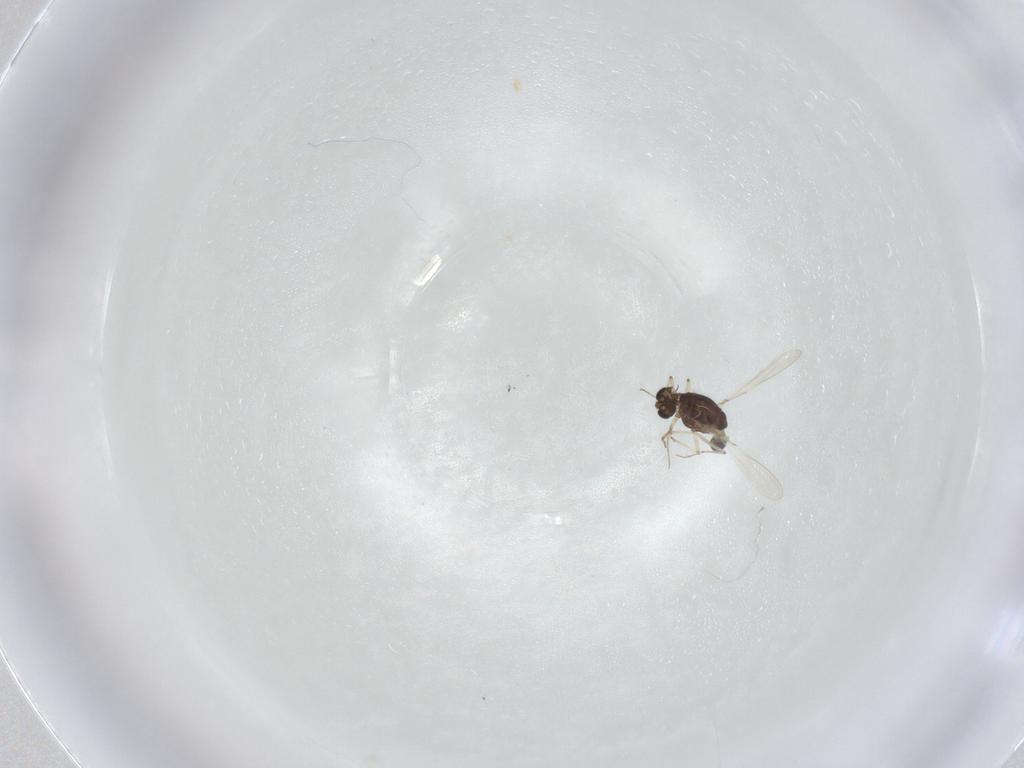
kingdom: Animalia
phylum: Arthropoda
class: Insecta
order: Diptera
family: Chironomidae
